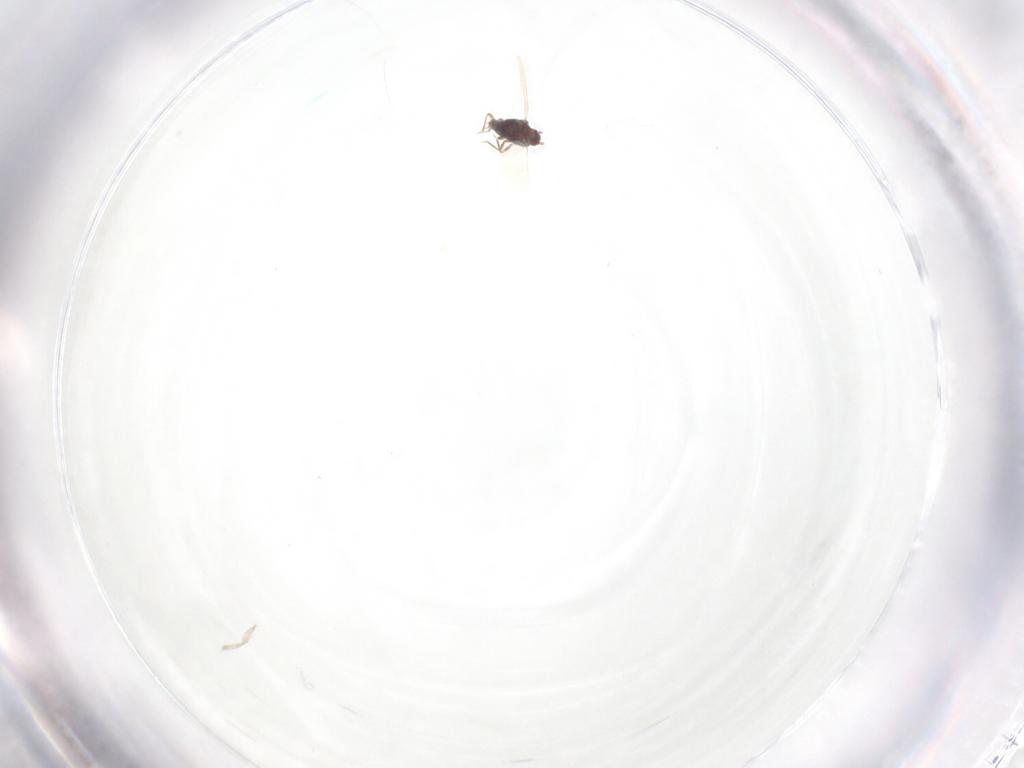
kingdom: Animalia
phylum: Arthropoda
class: Insecta
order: Hemiptera
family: Pseudococcidae
